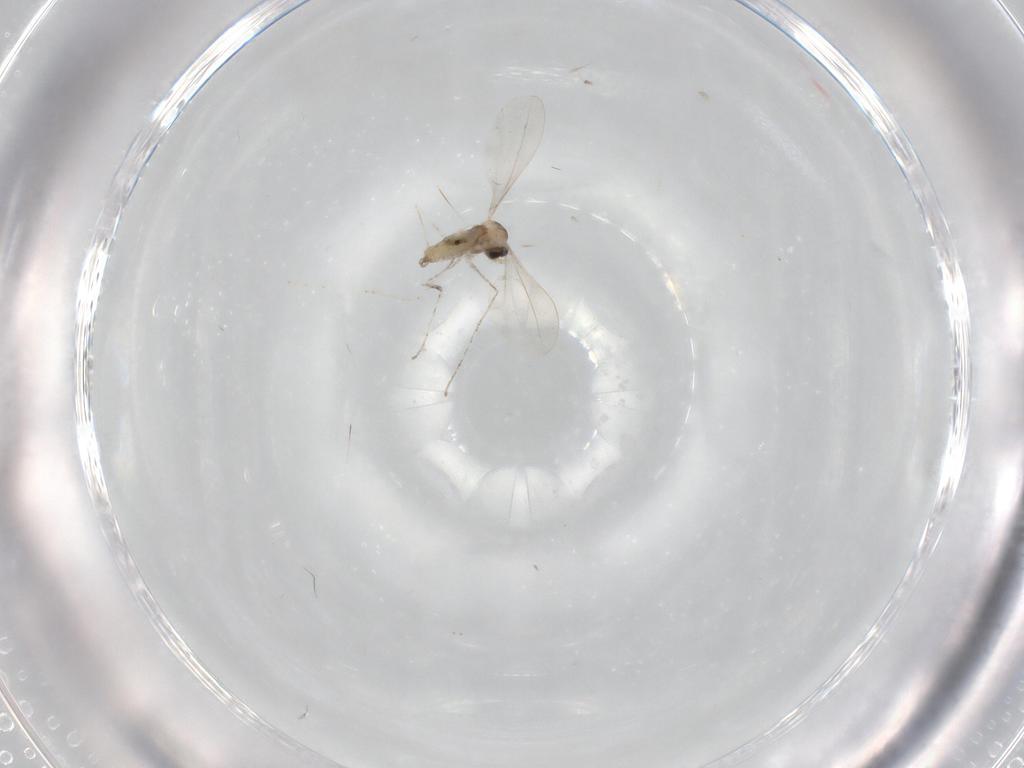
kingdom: Animalia
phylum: Arthropoda
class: Insecta
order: Diptera
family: Cecidomyiidae
